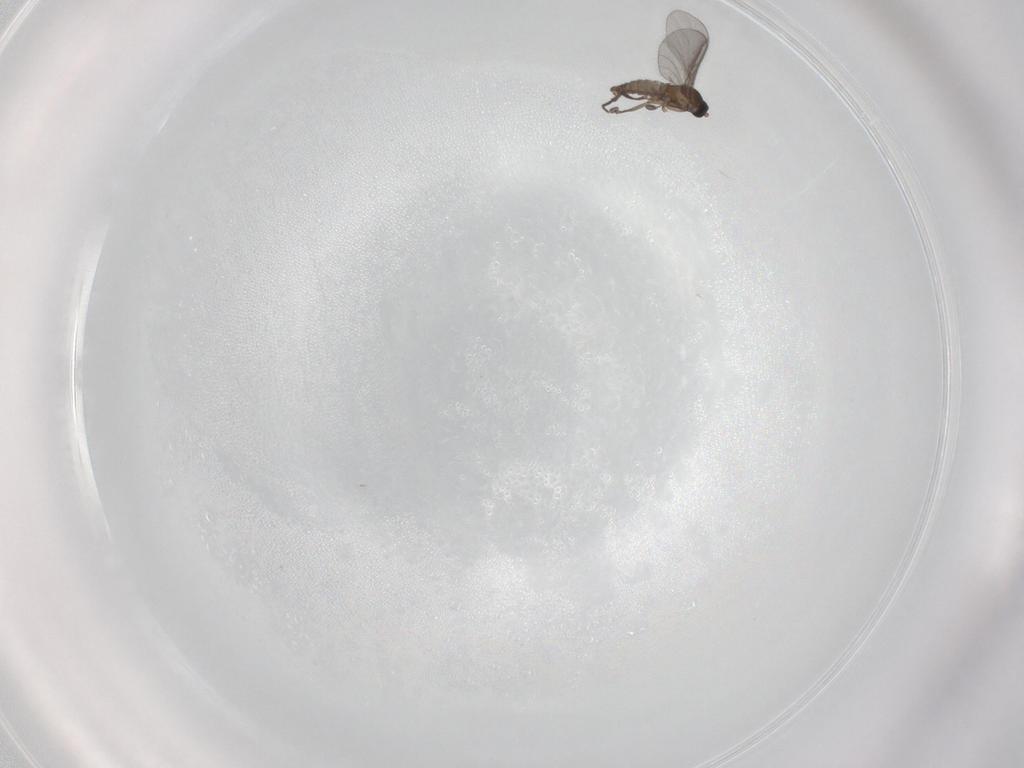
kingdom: Animalia
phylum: Arthropoda
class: Insecta
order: Diptera
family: Sciaridae
